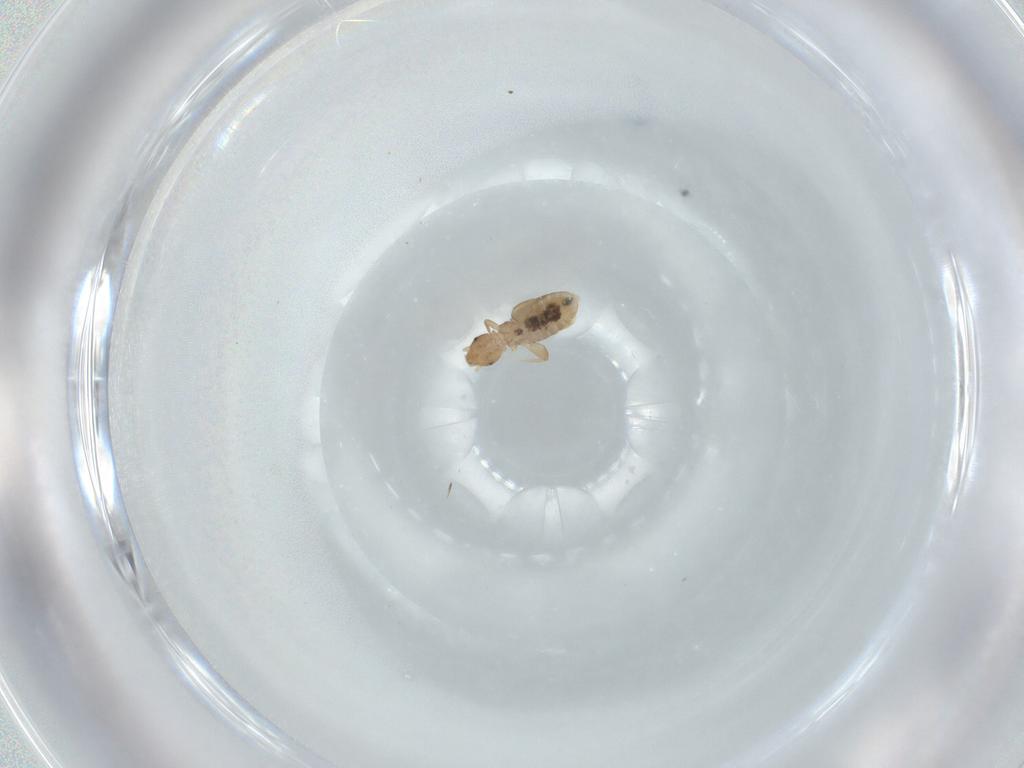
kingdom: Animalia
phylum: Arthropoda
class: Insecta
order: Psocodea
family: Liposcelididae
